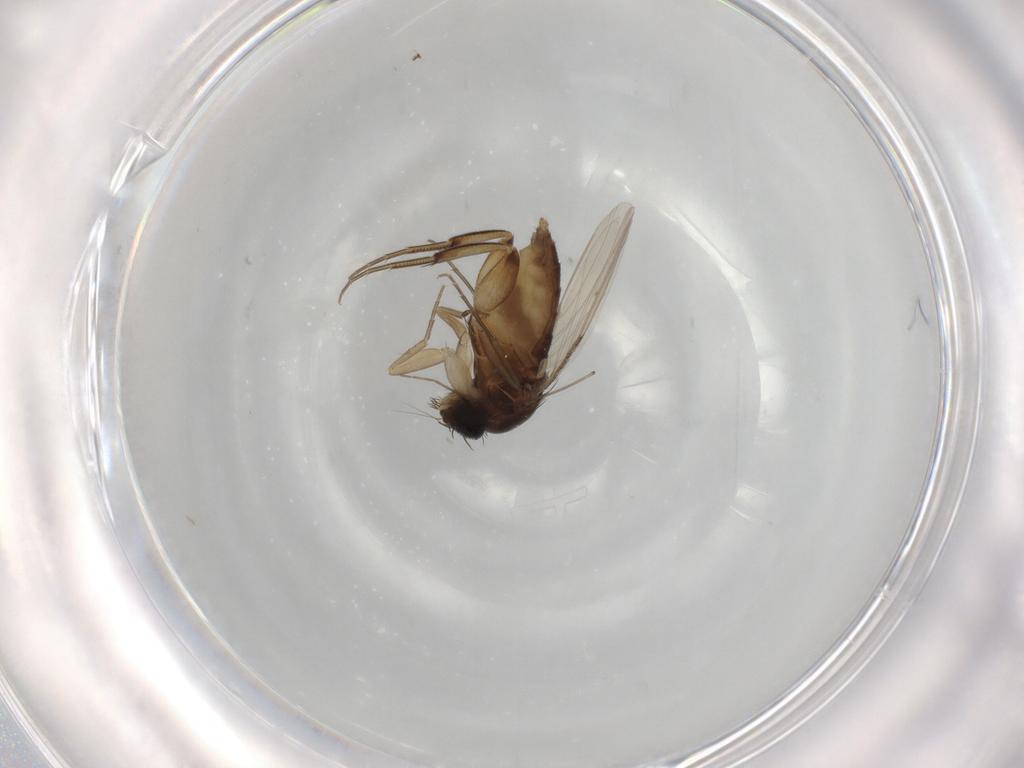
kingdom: Animalia
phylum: Arthropoda
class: Insecta
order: Diptera
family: Phoridae
